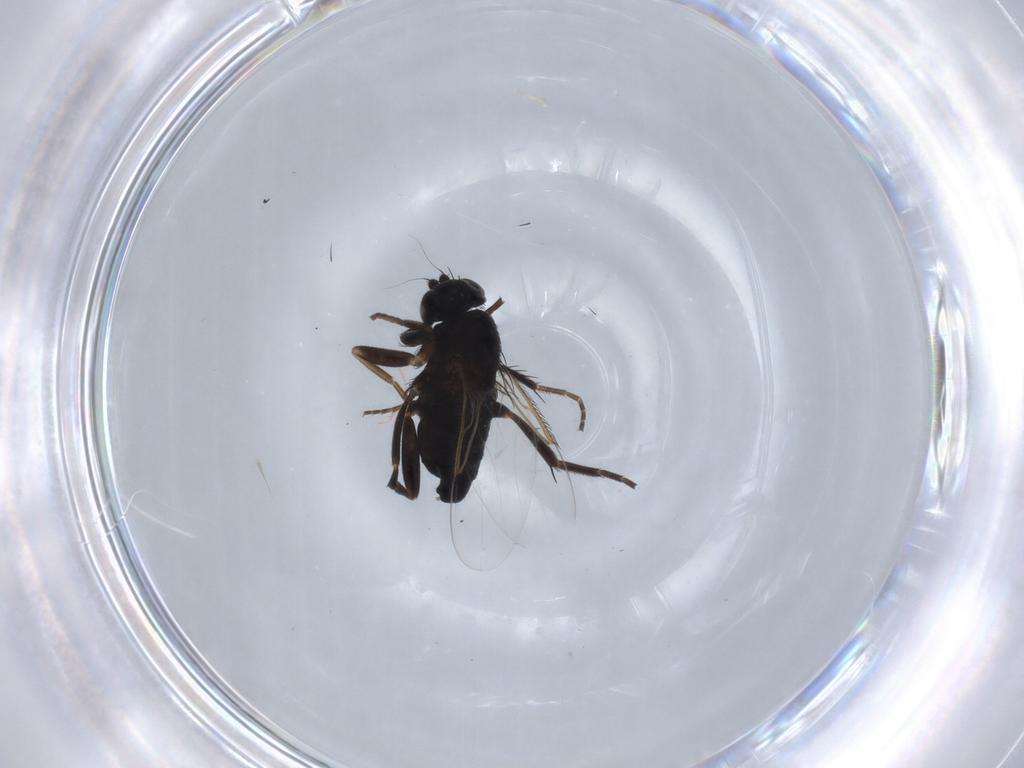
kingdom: Animalia
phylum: Arthropoda
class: Insecta
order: Diptera
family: Phoridae
